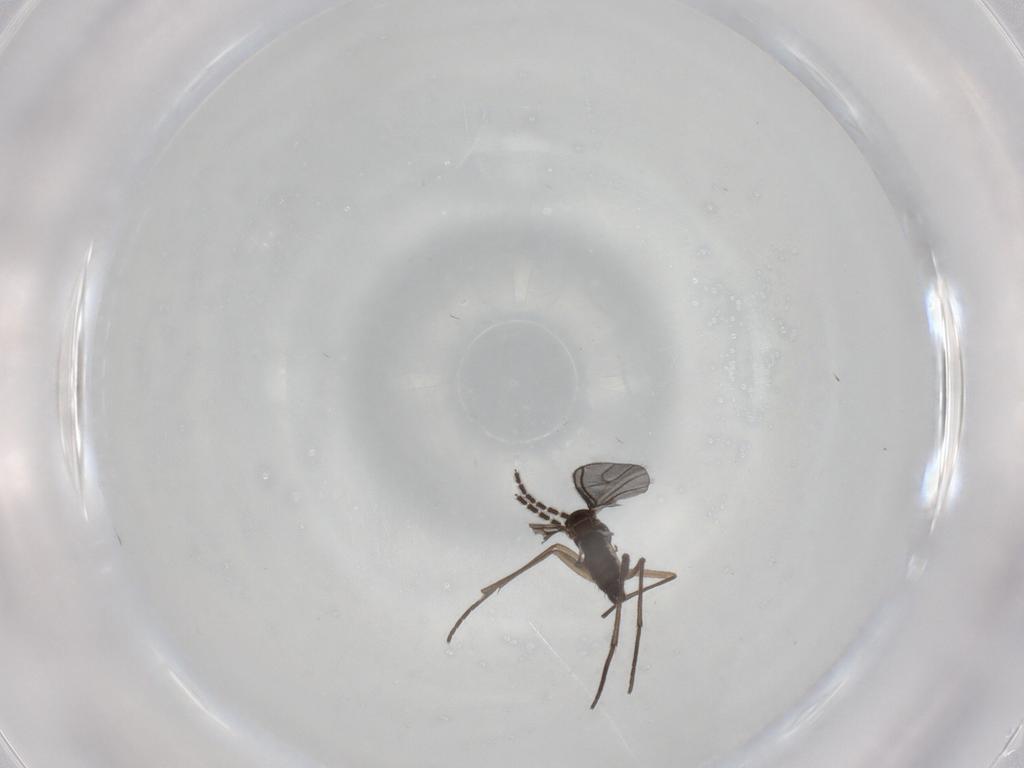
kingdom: Animalia
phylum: Arthropoda
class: Insecta
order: Diptera
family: Sciaridae
